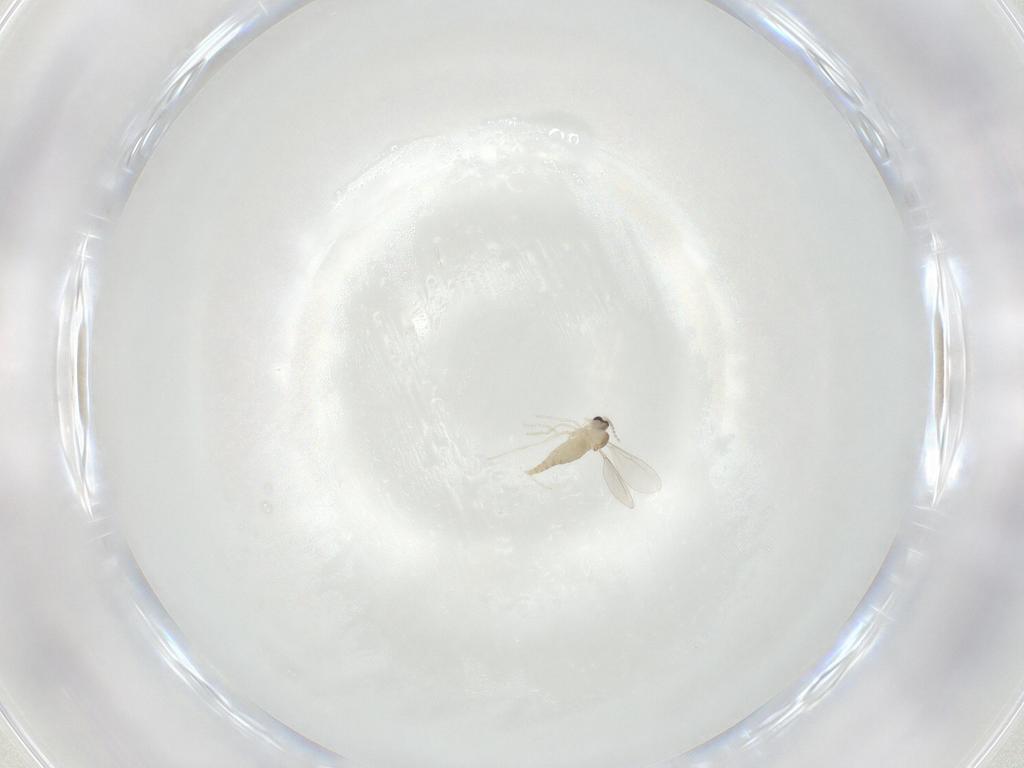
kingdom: Animalia
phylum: Arthropoda
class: Insecta
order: Diptera
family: Cecidomyiidae
